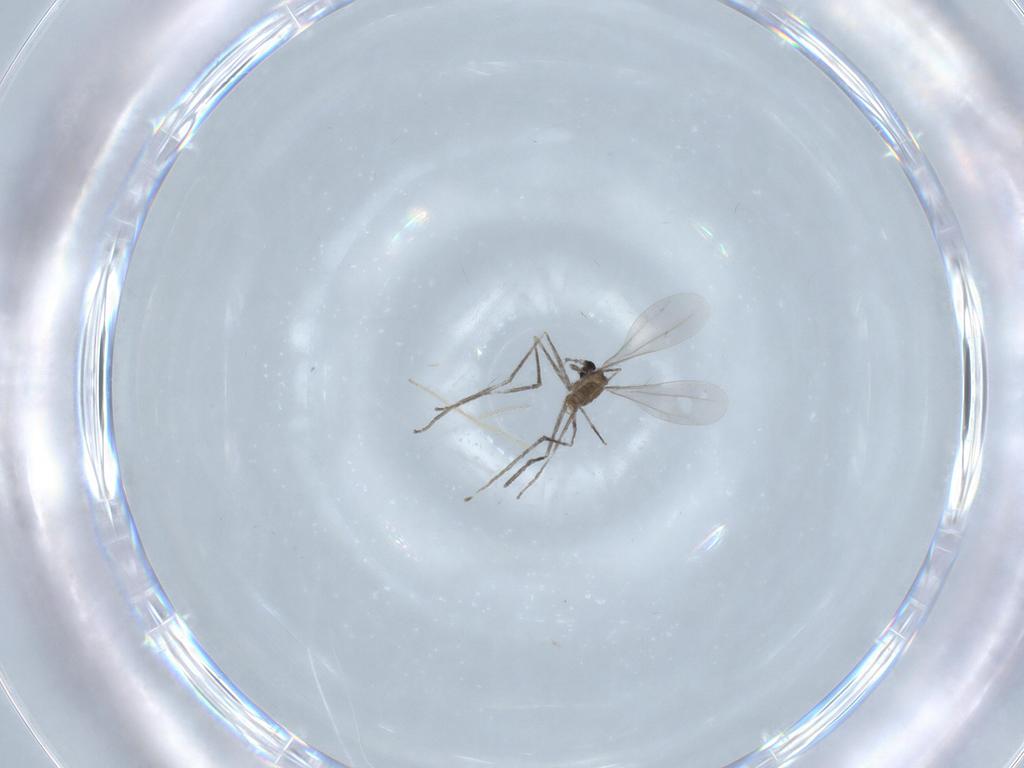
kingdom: Animalia
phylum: Arthropoda
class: Insecta
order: Diptera
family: Cecidomyiidae
